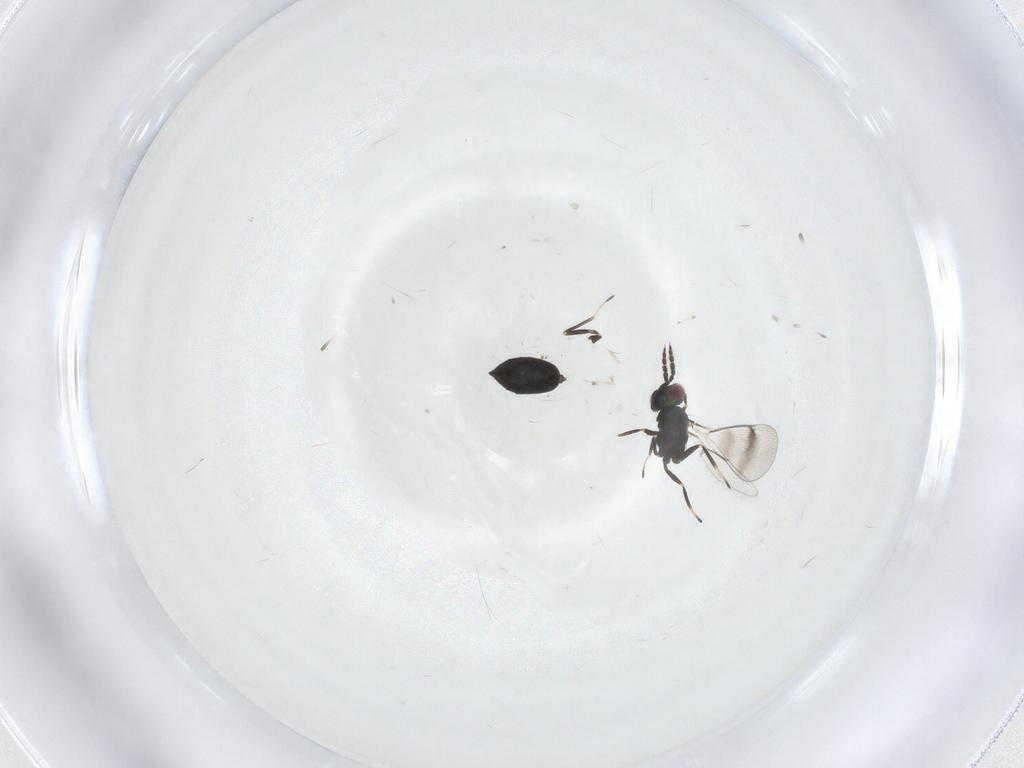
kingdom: Animalia
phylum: Arthropoda
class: Insecta
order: Hymenoptera
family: Eulophidae
